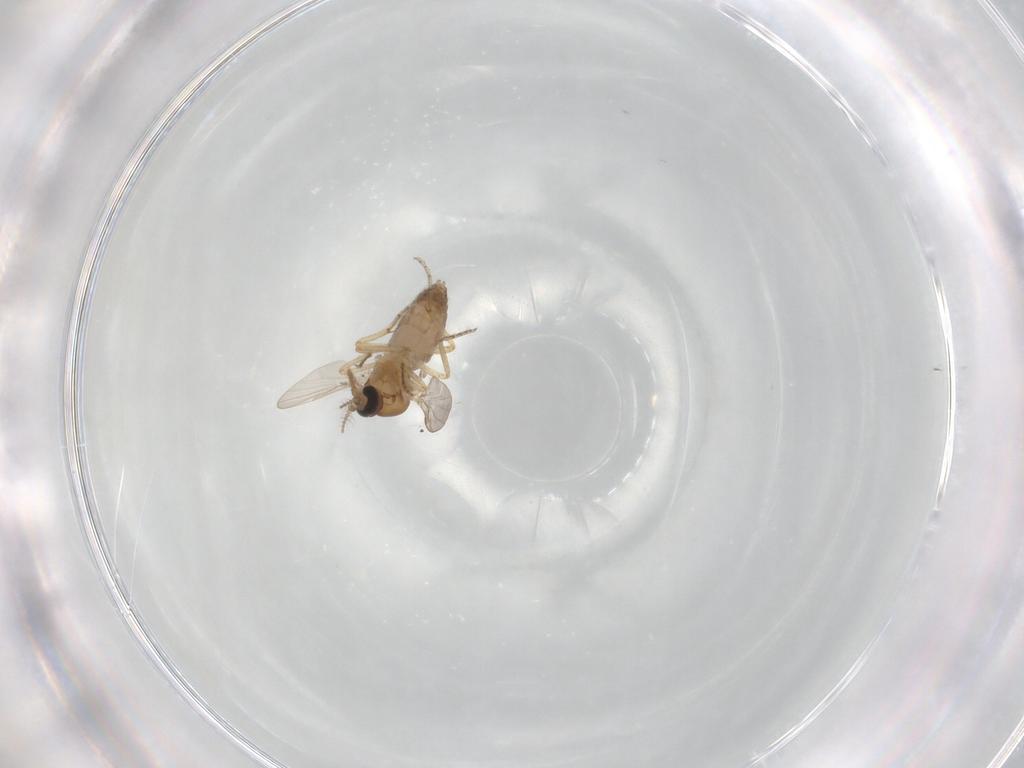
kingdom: Animalia
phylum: Arthropoda
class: Insecta
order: Diptera
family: Ceratopogonidae
